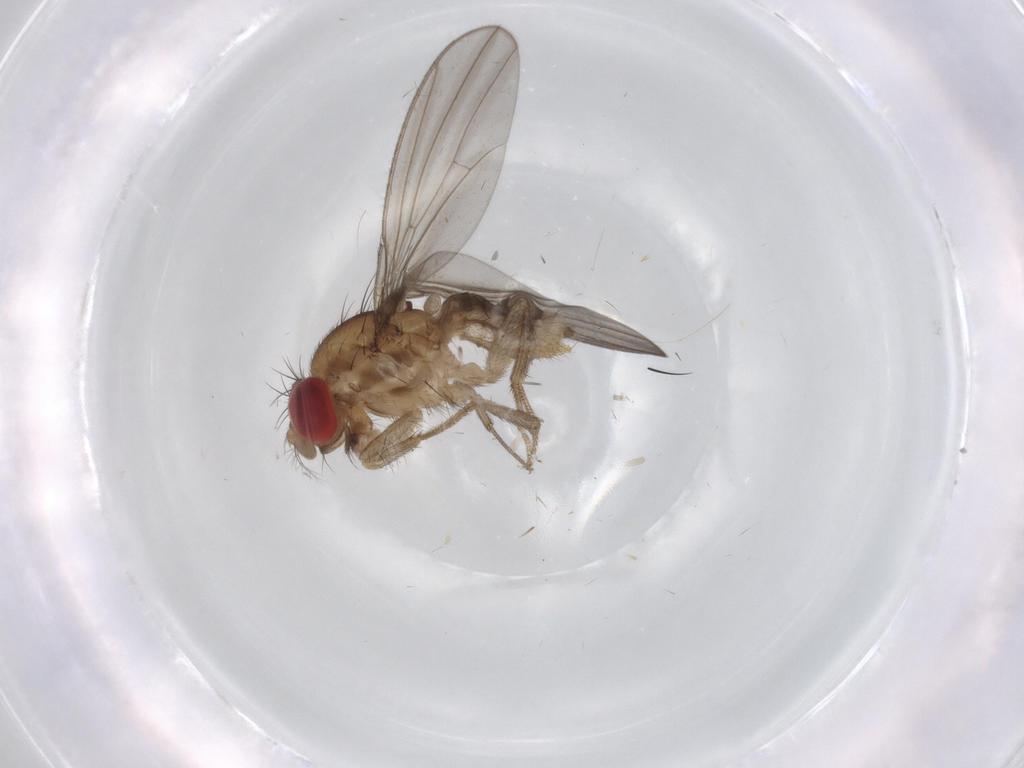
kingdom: Animalia
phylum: Arthropoda
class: Insecta
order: Diptera
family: Drosophilidae
